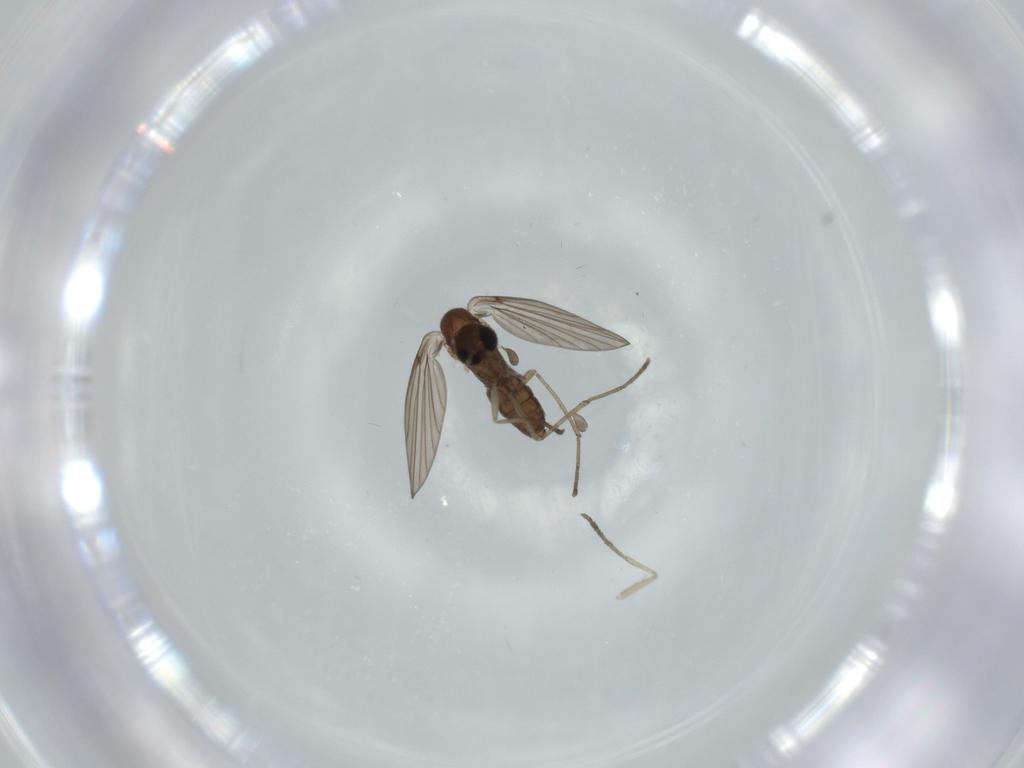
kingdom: Animalia
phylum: Arthropoda
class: Insecta
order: Diptera
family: Psychodidae
